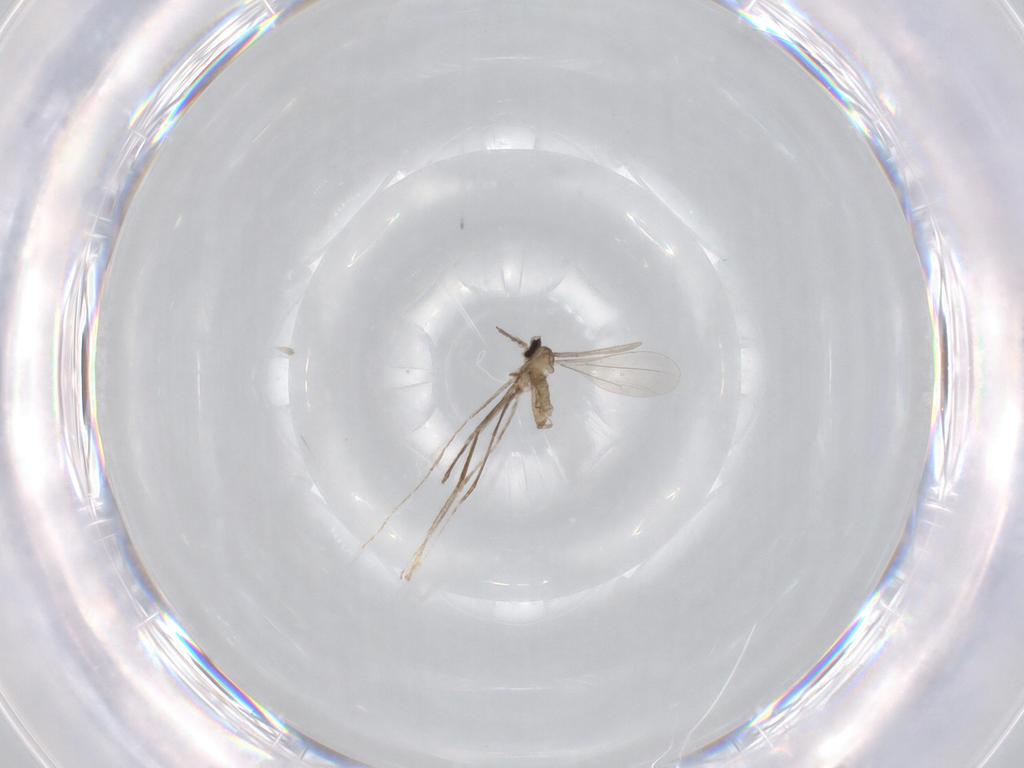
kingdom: Animalia
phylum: Arthropoda
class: Insecta
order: Diptera
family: Cecidomyiidae
